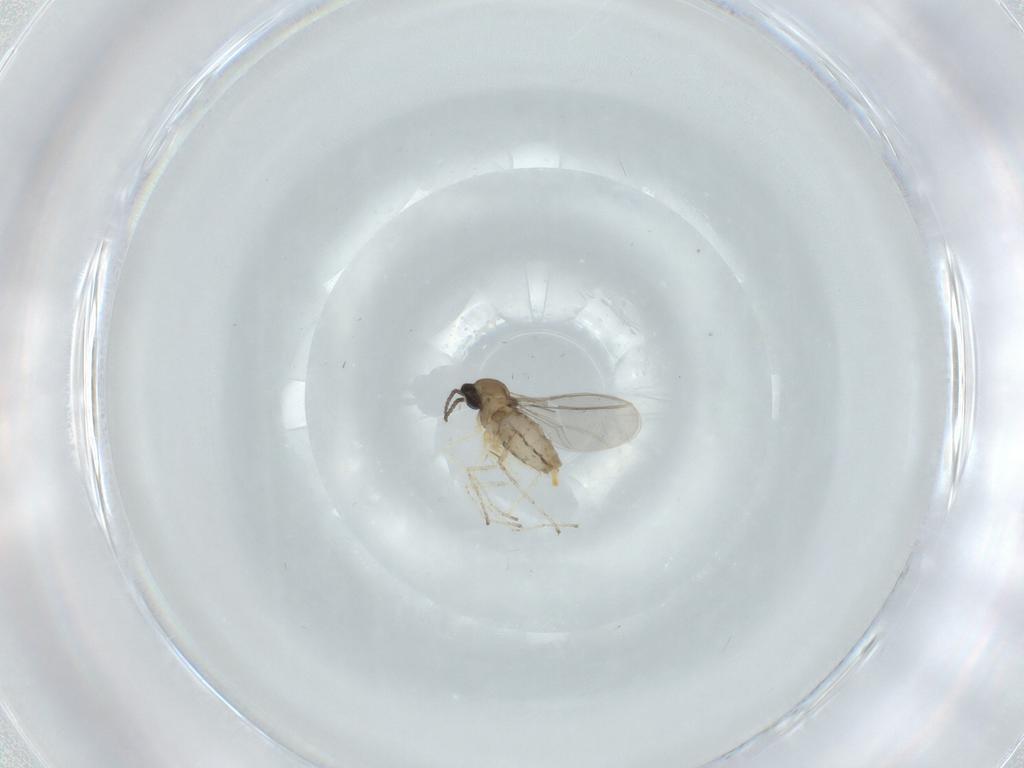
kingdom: Animalia
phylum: Arthropoda
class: Insecta
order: Diptera
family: Cecidomyiidae
